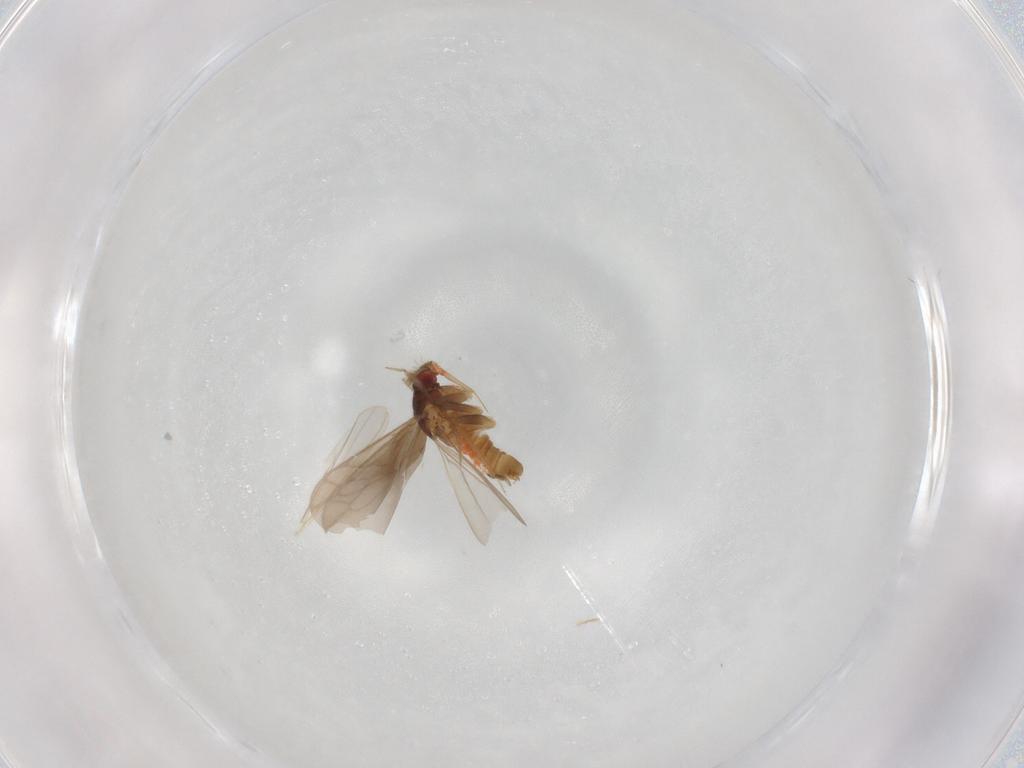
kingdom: Animalia
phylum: Arthropoda
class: Insecta
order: Hemiptera
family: Ceratocombidae
